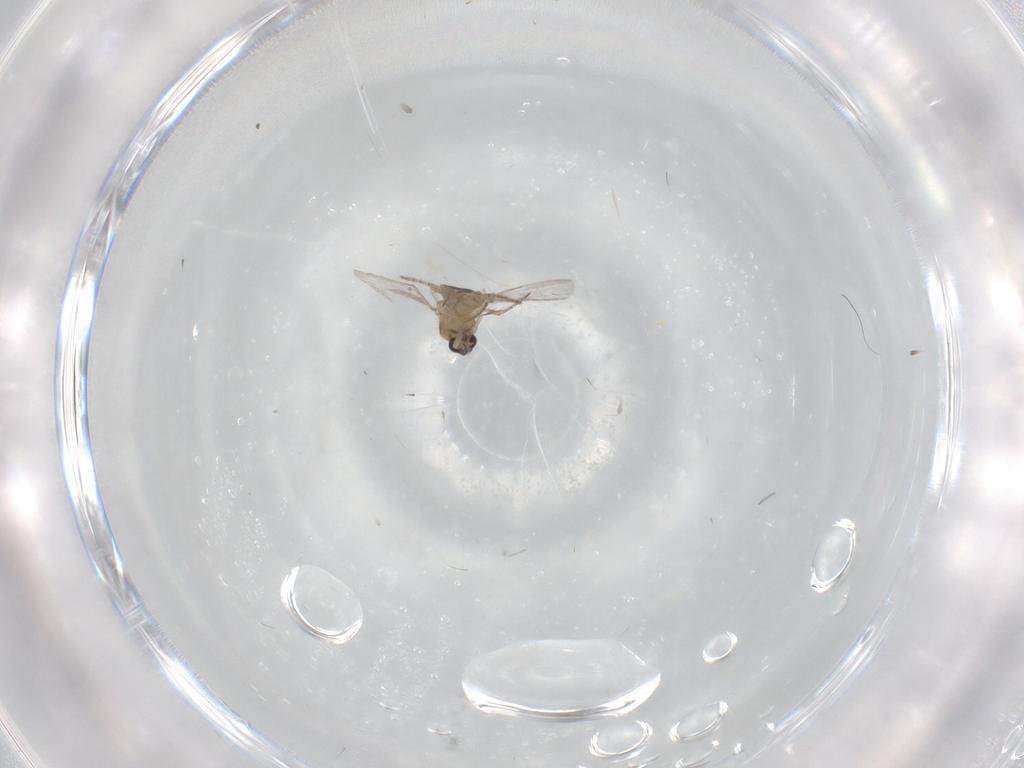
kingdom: Animalia
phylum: Arthropoda
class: Insecta
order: Diptera
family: Ceratopogonidae
